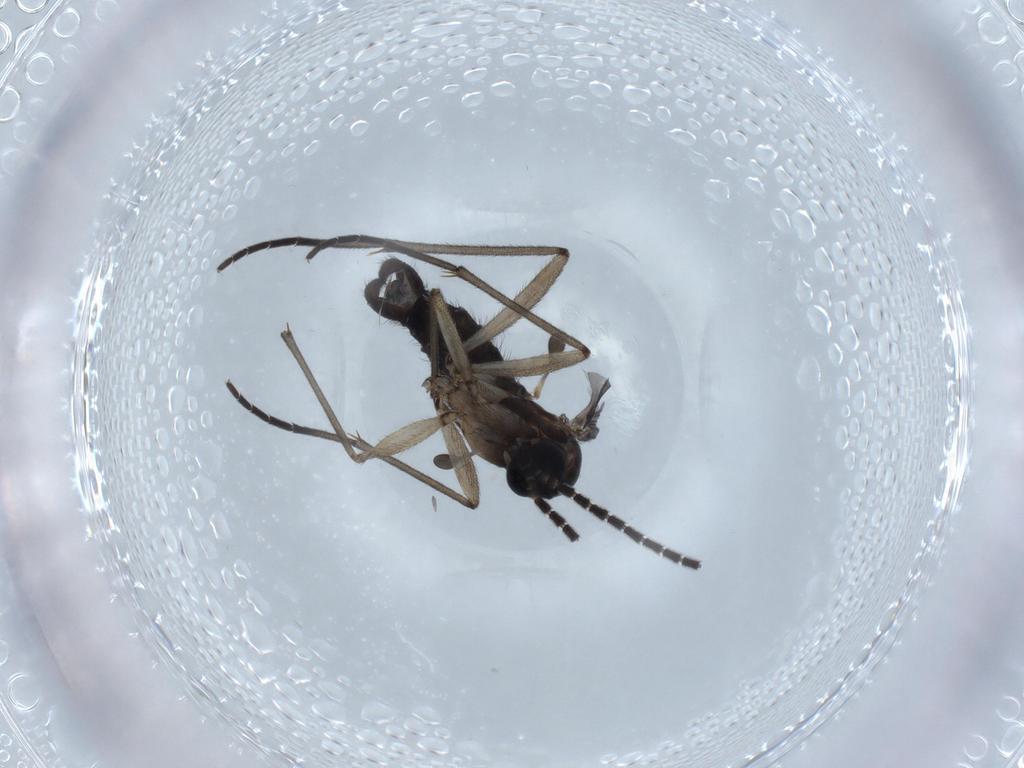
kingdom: Animalia
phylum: Arthropoda
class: Insecta
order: Diptera
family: Sciaridae
